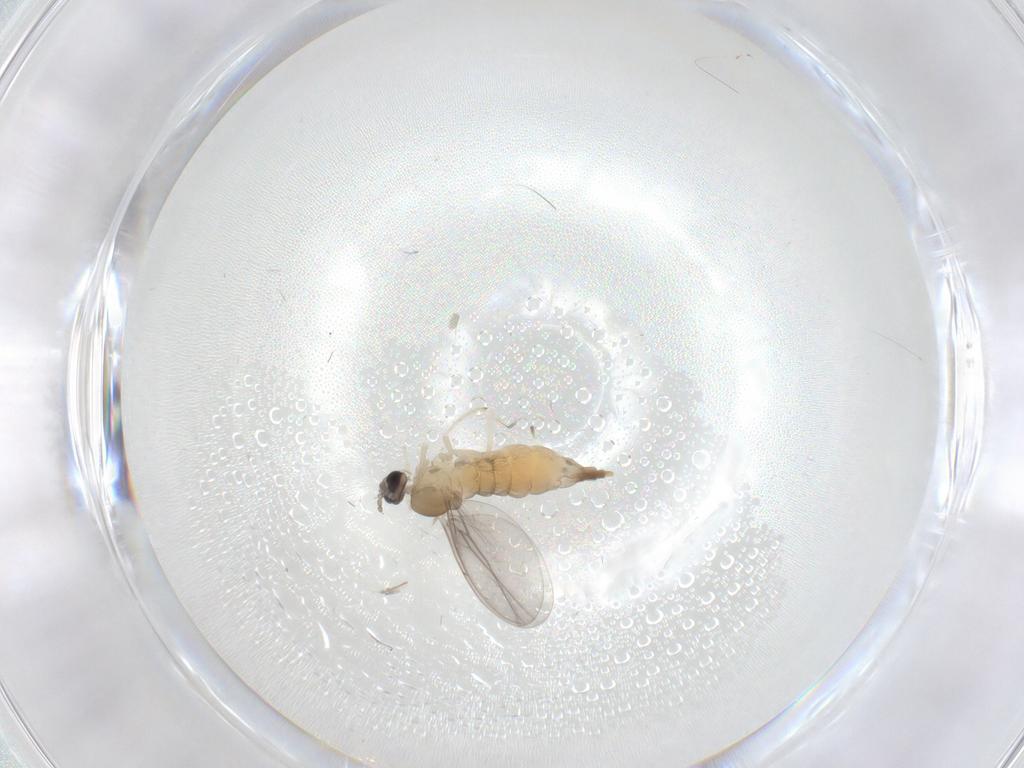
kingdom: Animalia
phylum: Arthropoda
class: Insecta
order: Diptera
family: Cecidomyiidae
